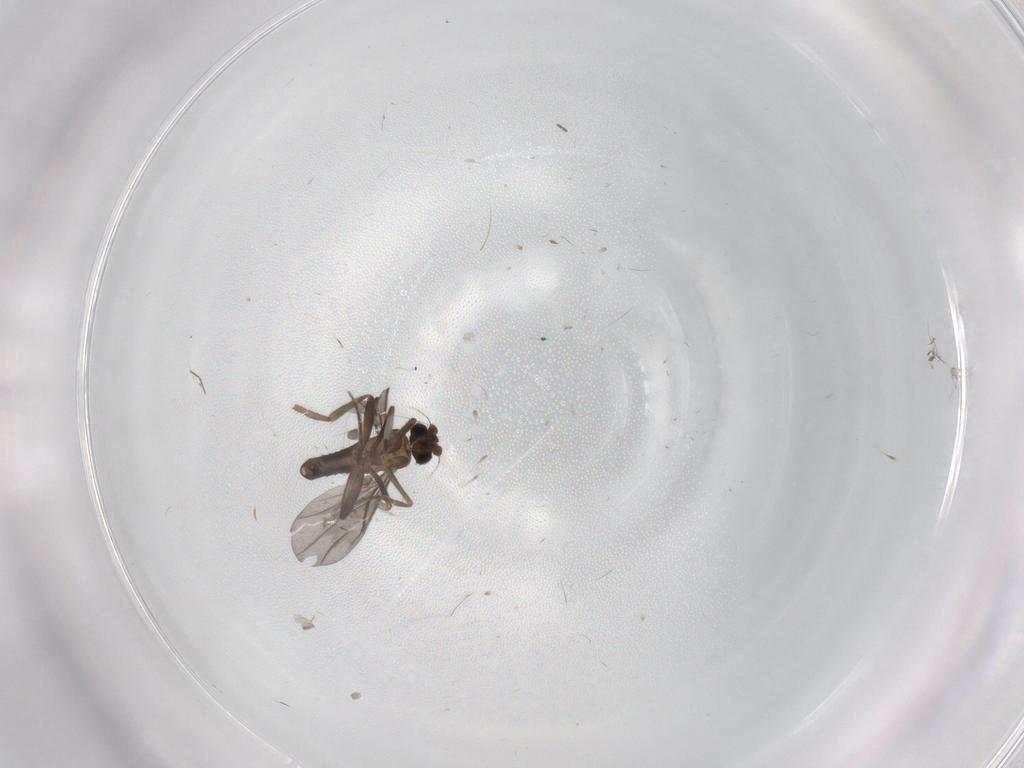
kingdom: Animalia
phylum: Arthropoda
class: Insecta
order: Diptera
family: Phoridae
